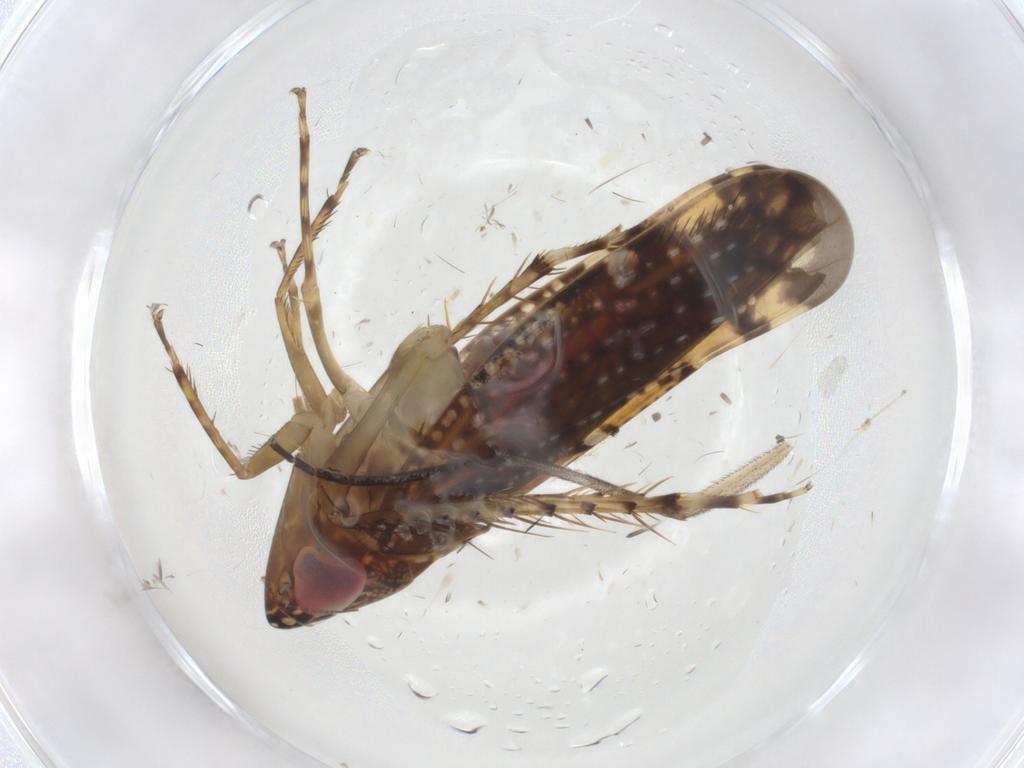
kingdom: Animalia
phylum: Arthropoda
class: Insecta
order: Hemiptera
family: Cicadellidae
